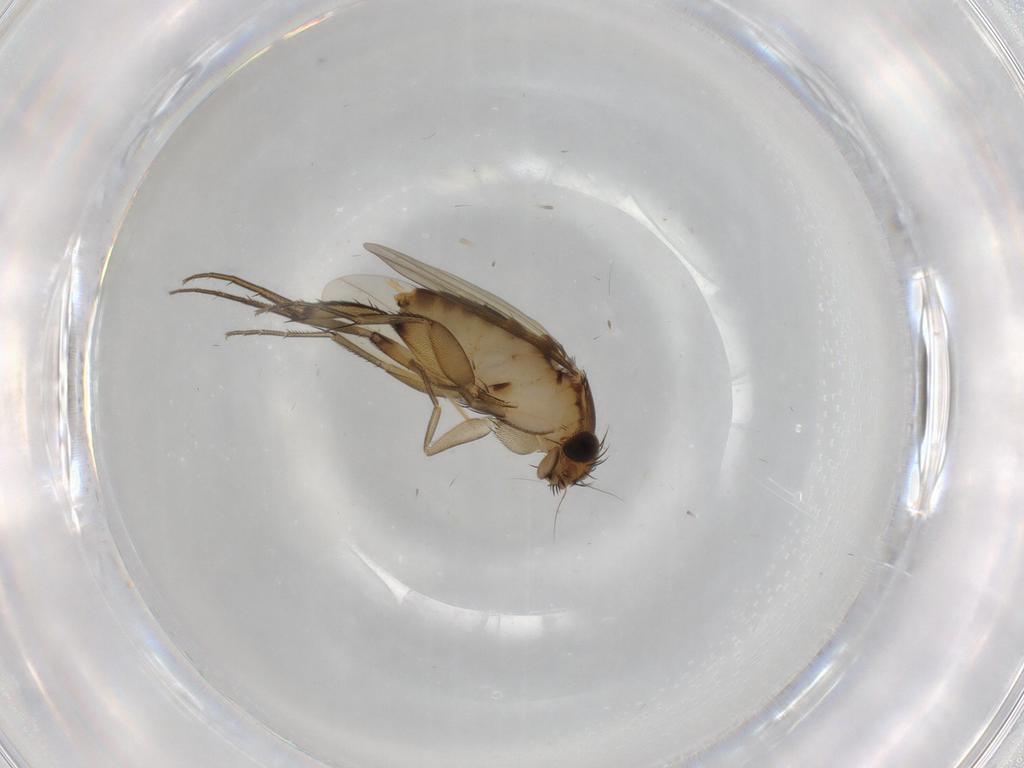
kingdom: Animalia
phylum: Arthropoda
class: Insecta
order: Diptera
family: Phoridae
